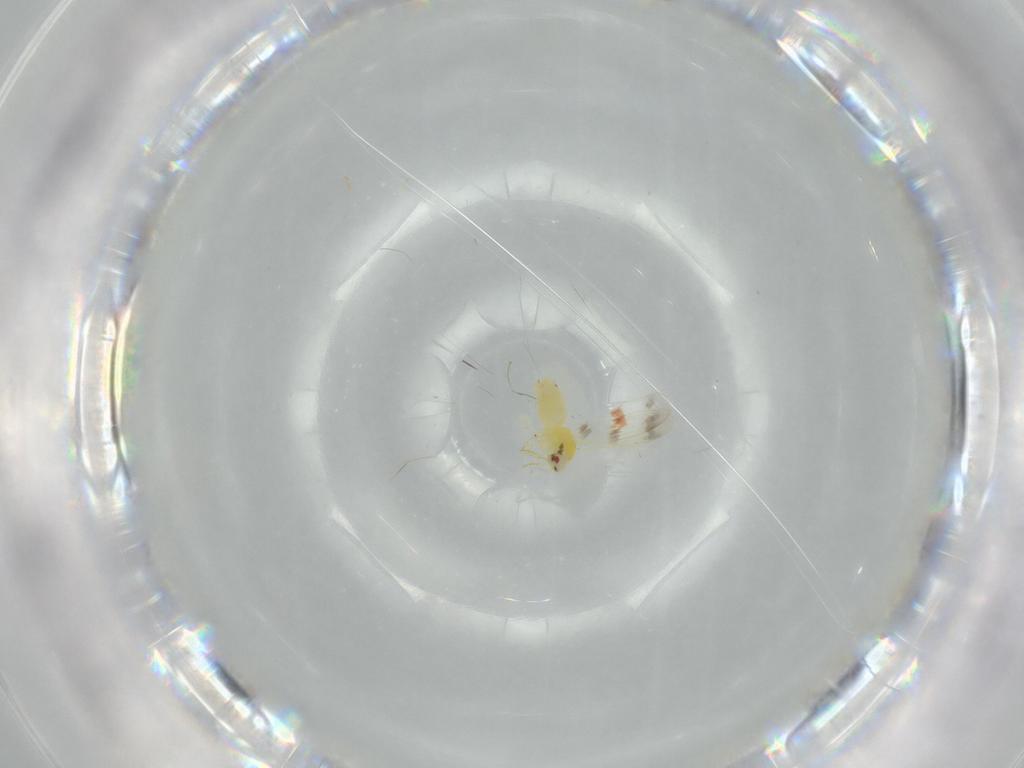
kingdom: Animalia
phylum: Arthropoda
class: Insecta
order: Hemiptera
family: Aleyrodidae
